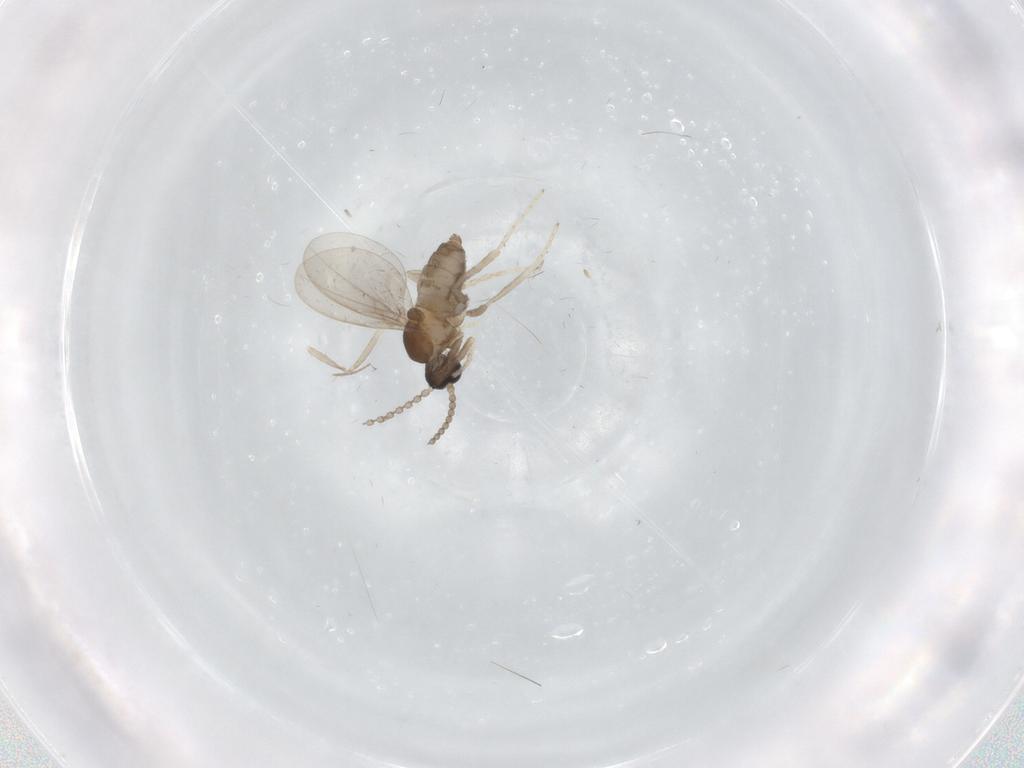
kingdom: Animalia
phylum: Arthropoda
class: Insecta
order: Diptera
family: Cecidomyiidae
